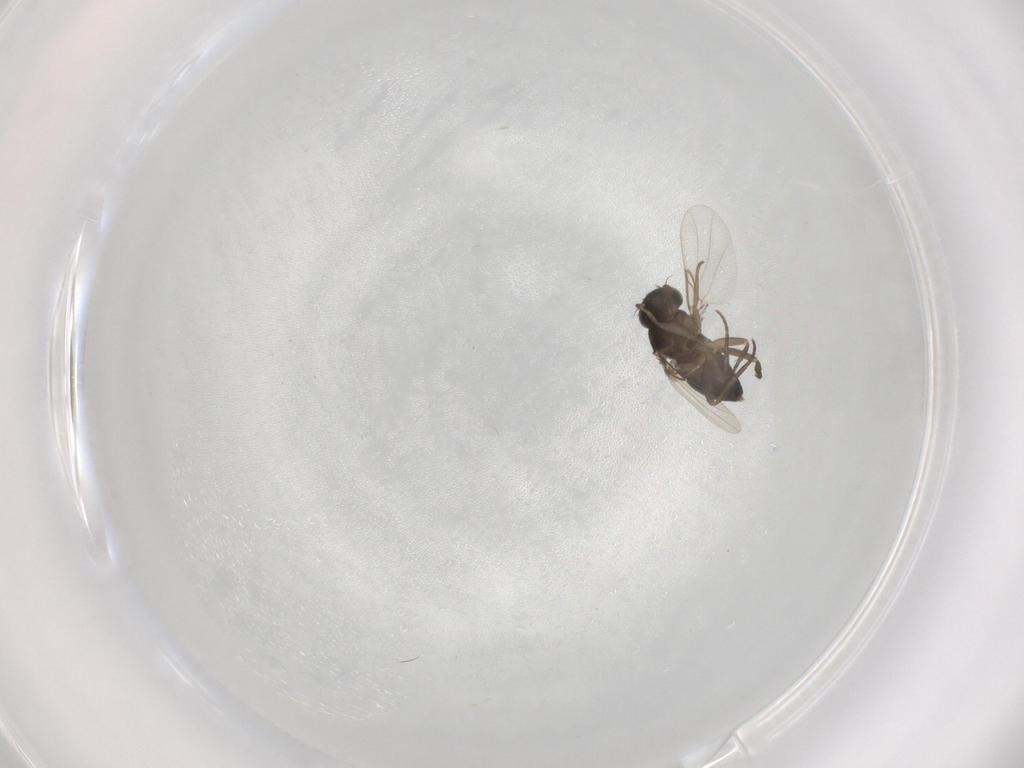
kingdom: Animalia
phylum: Arthropoda
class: Insecta
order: Diptera
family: Phoridae
